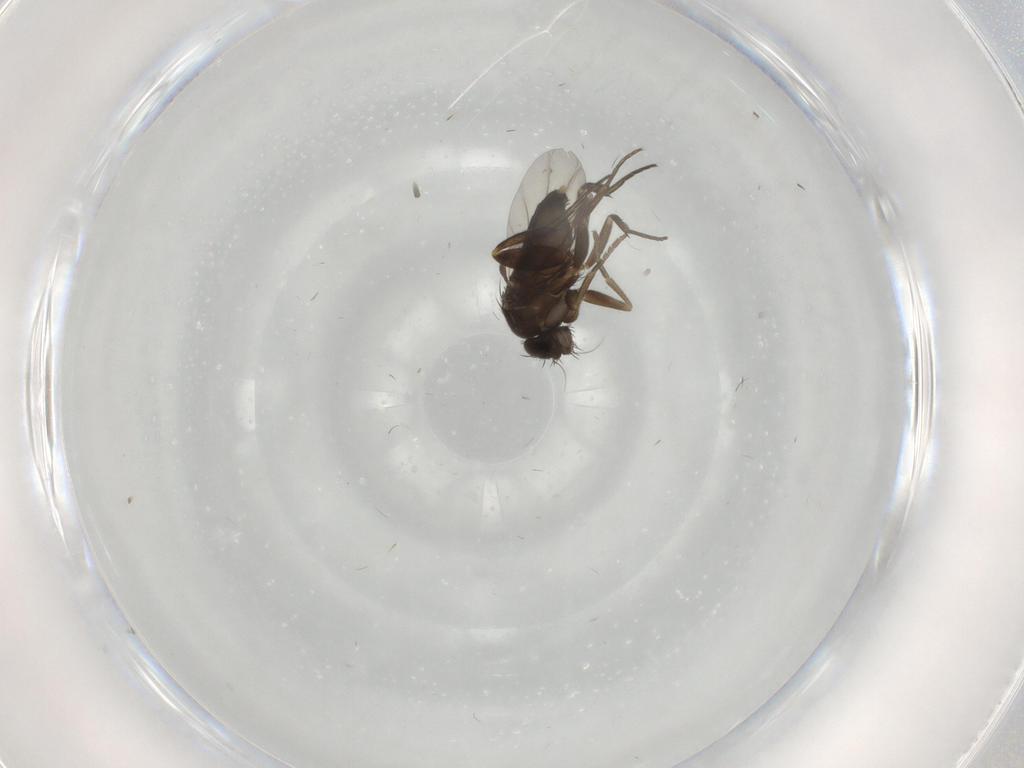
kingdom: Animalia
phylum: Arthropoda
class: Insecta
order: Diptera
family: Phoridae
